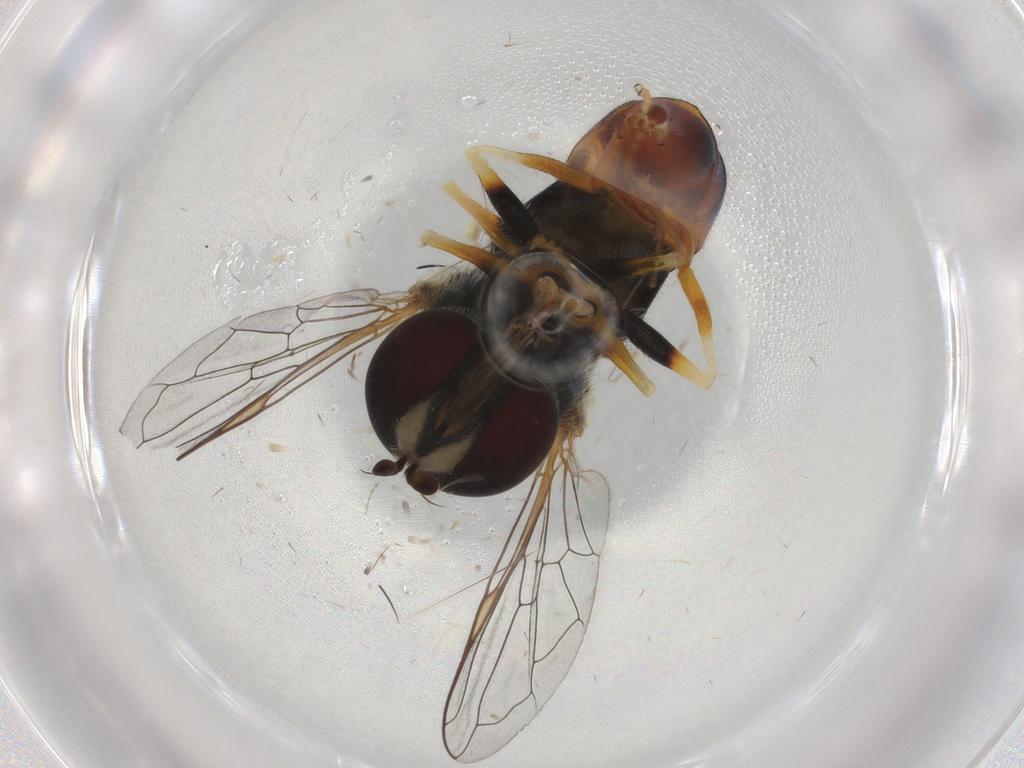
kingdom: Animalia
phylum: Arthropoda
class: Insecta
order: Diptera
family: Syrphidae
